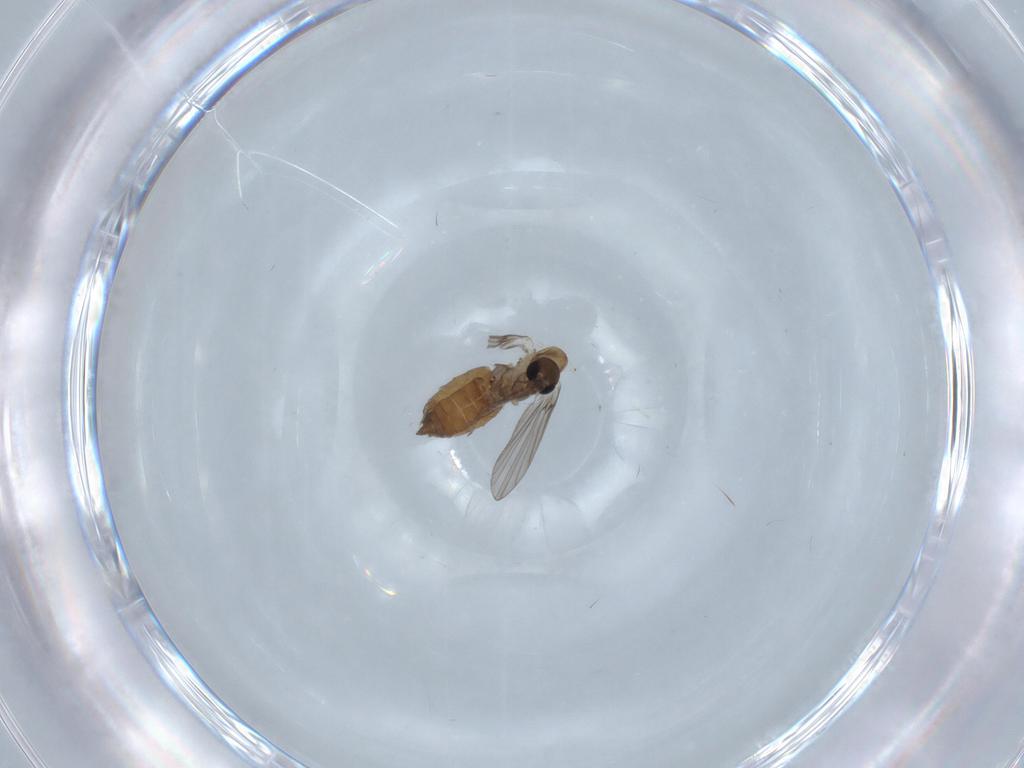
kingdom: Animalia
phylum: Arthropoda
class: Insecta
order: Diptera
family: Psychodidae
